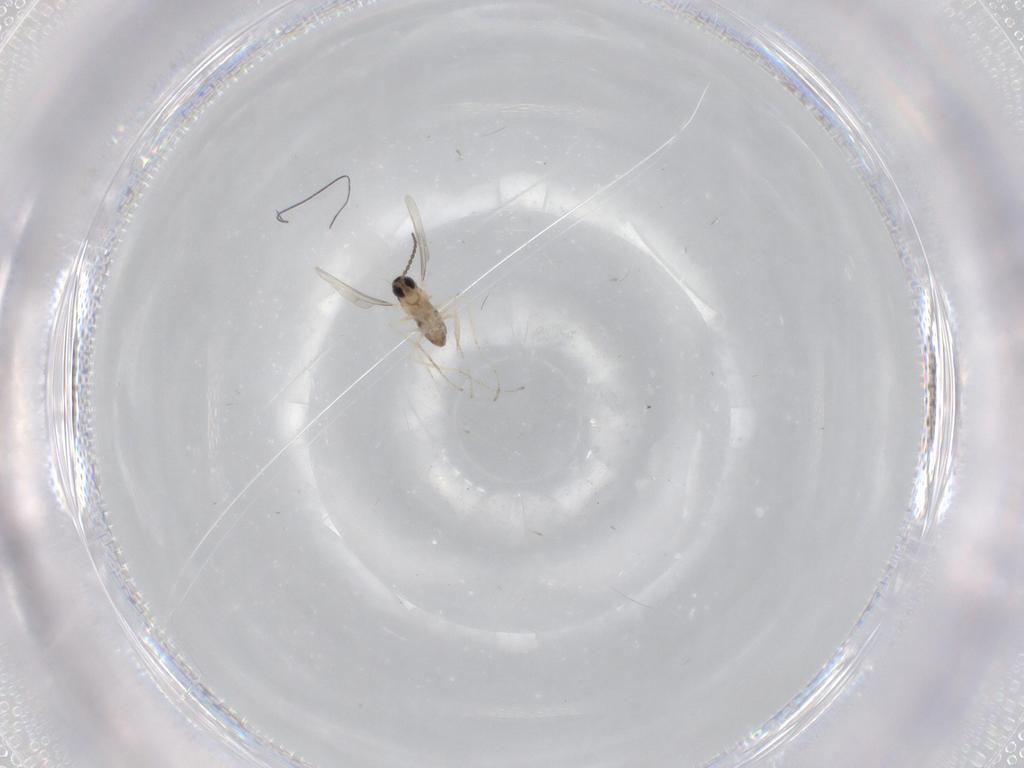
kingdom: Animalia
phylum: Arthropoda
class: Insecta
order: Diptera
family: Cecidomyiidae
